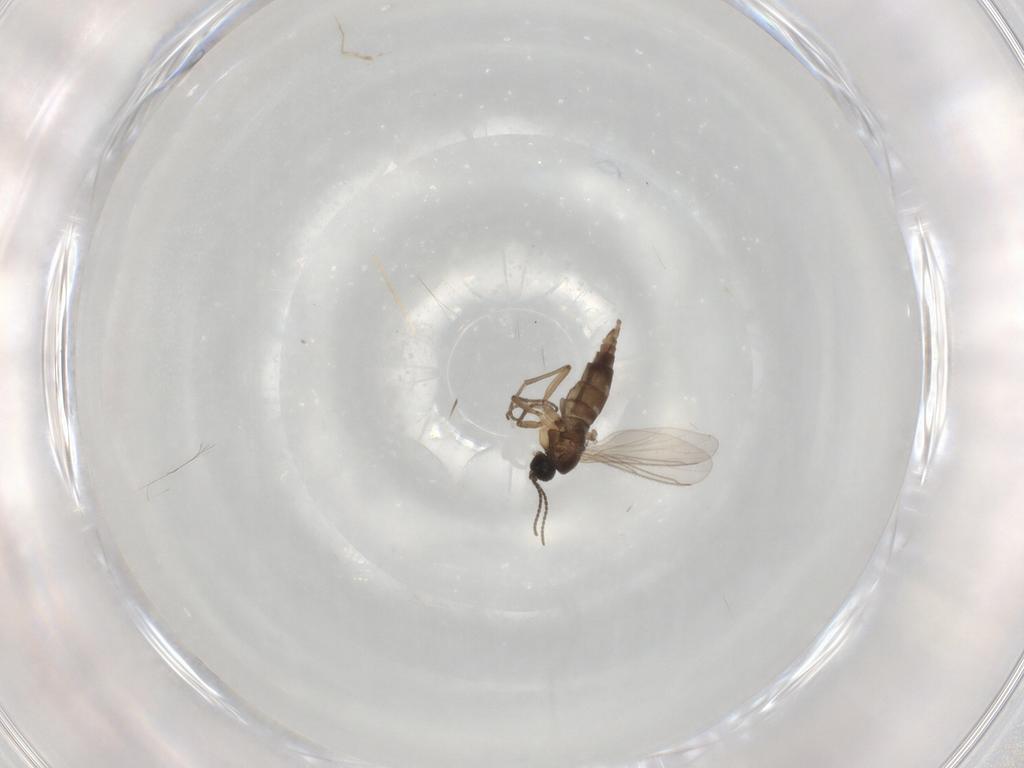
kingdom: Animalia
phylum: Arthropoda
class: Insecta
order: Diptera
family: Sciaridae
